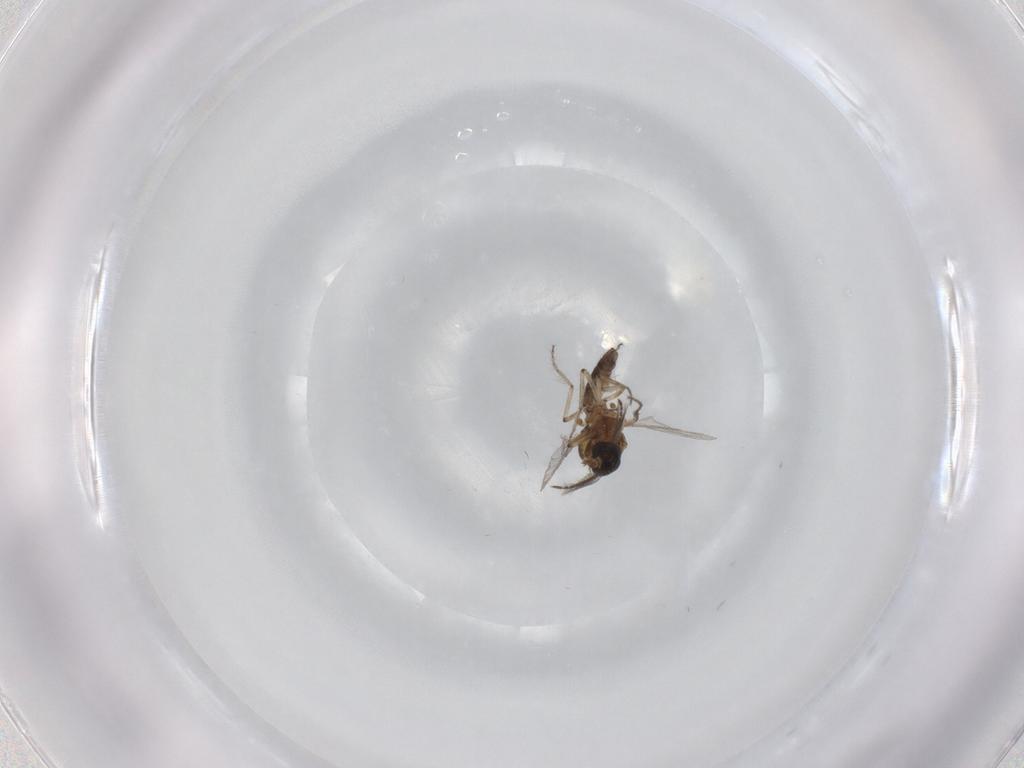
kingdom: Animalia
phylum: Arthropoda
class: Insecta
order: Diptera
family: Ceratopogonidae
